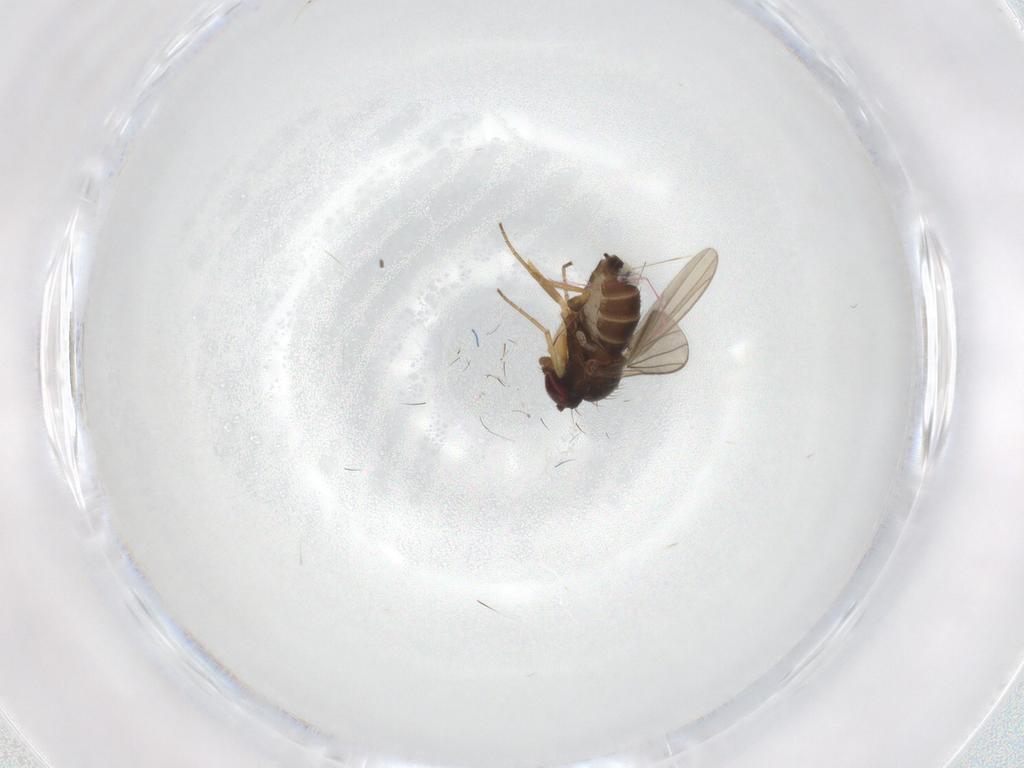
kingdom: Animalia
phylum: Arthropoda
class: Insecta
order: Diptera
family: Dolichopodidae
